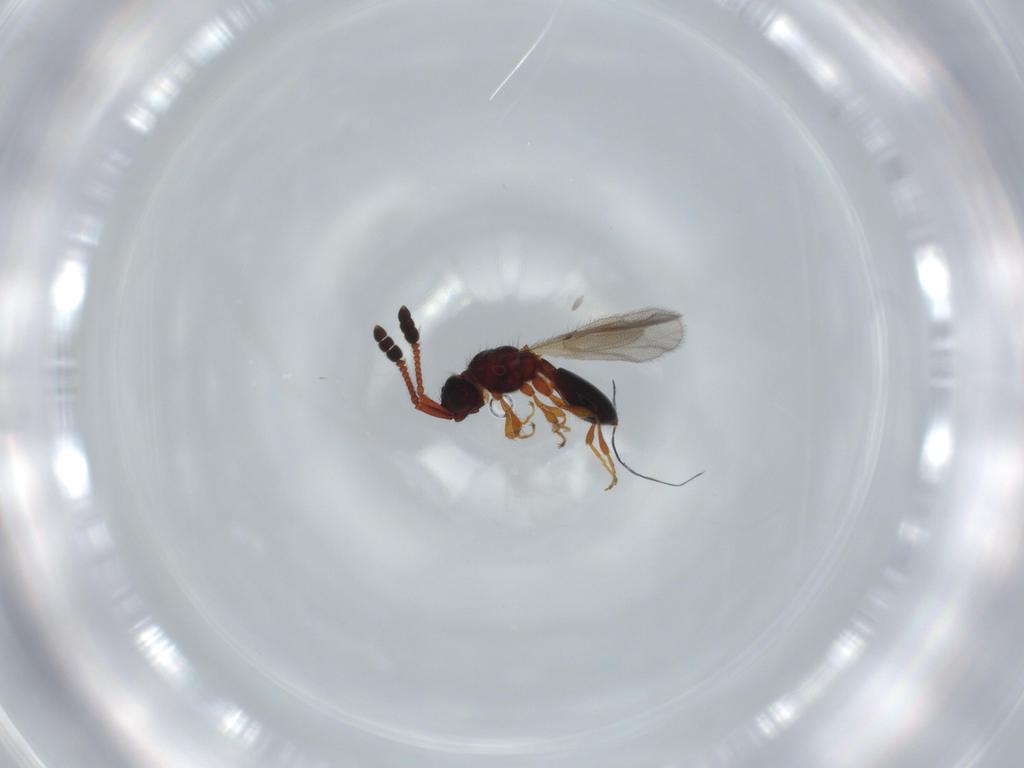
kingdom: Animalia
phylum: Arthropoda
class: Insecta
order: Hymenoptera
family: Diapriidae
